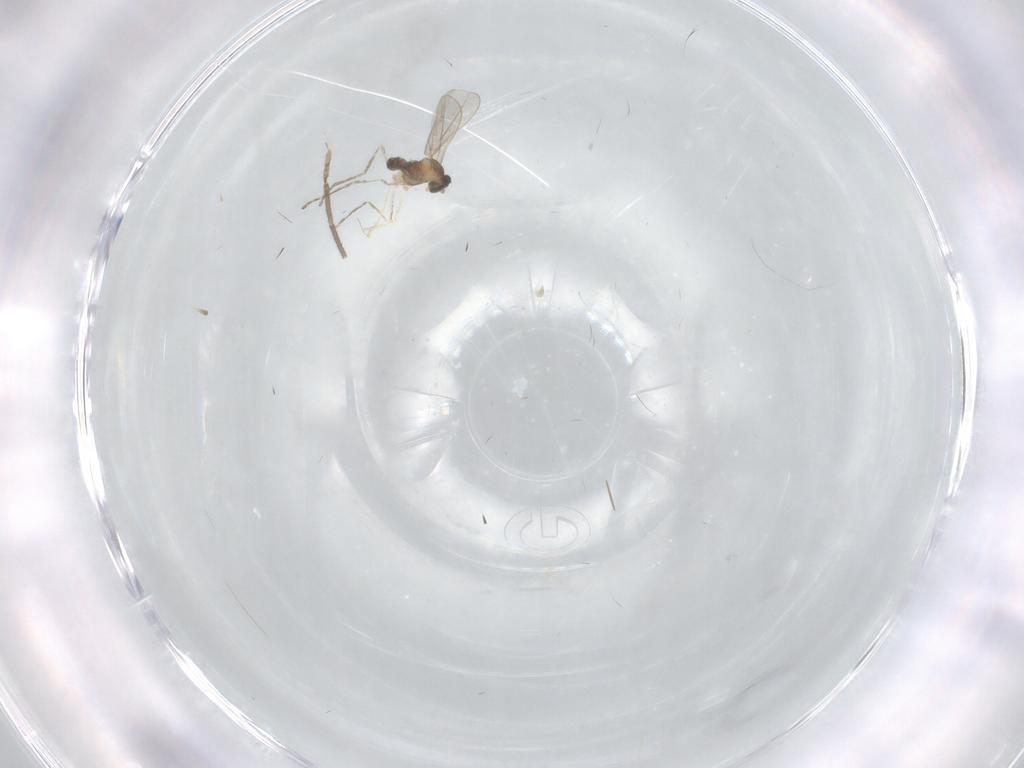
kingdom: Animalia
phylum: Arthropoda
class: Insecta
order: Diptera
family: Cecidomyiidae
